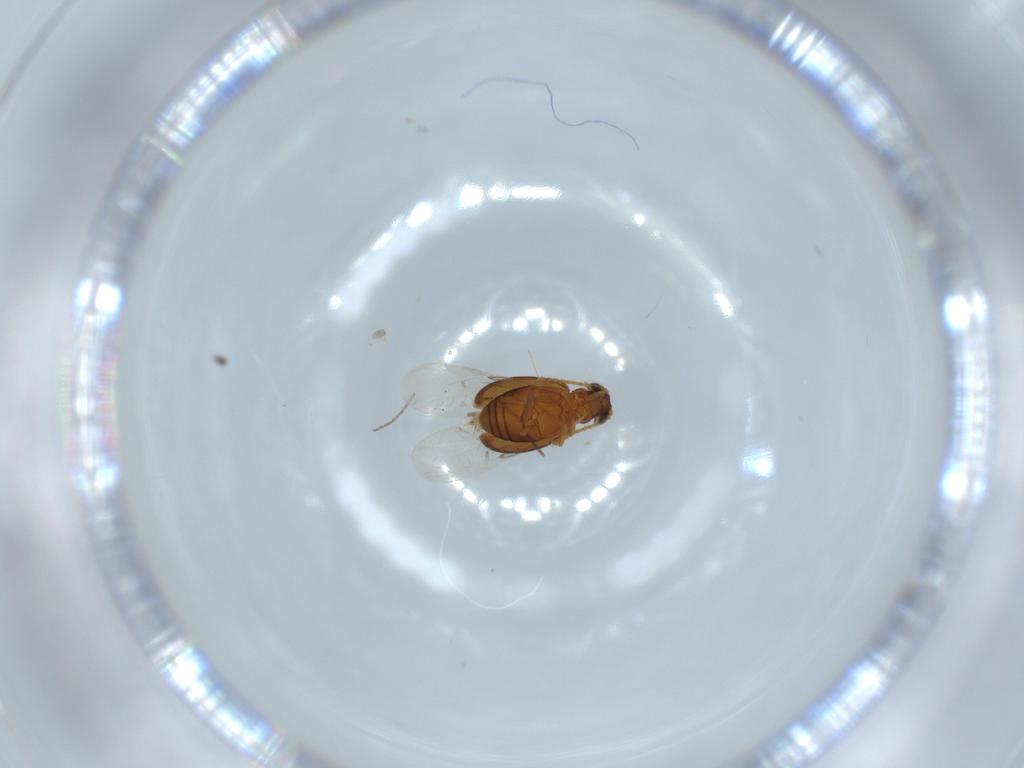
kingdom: Animalia
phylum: Arthropoda
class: Insecta
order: Coleoptera
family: Aderidae
